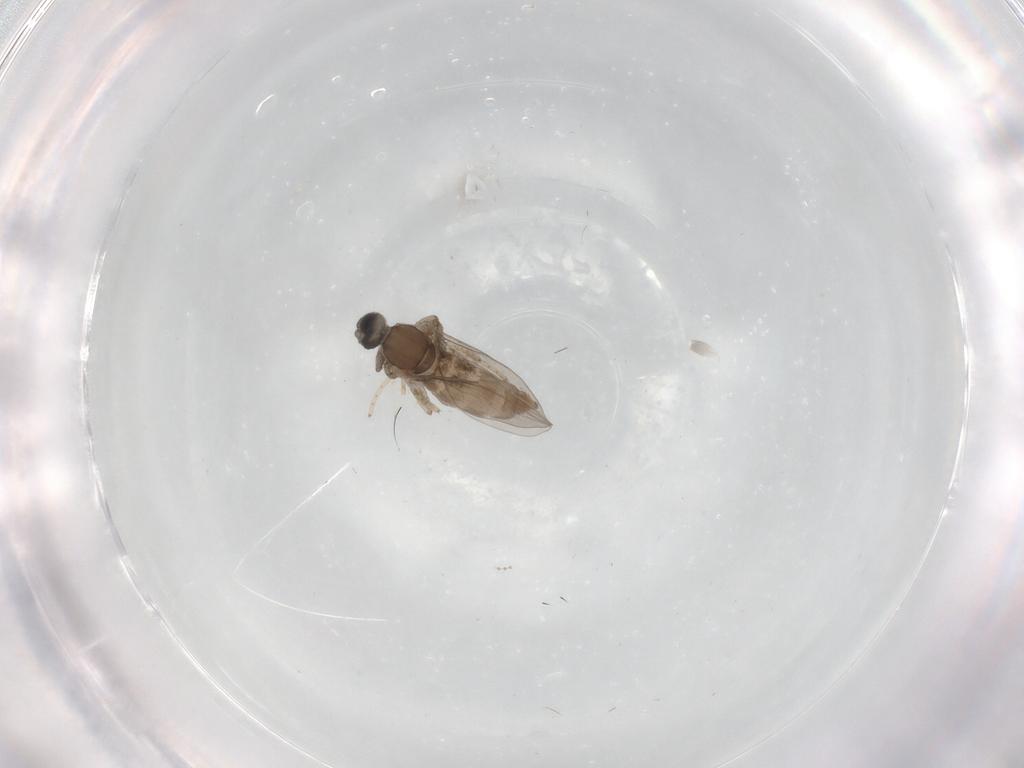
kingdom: Animalia
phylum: Arthropoda
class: Insecta
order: Diptera
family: Cecidomyiidae
